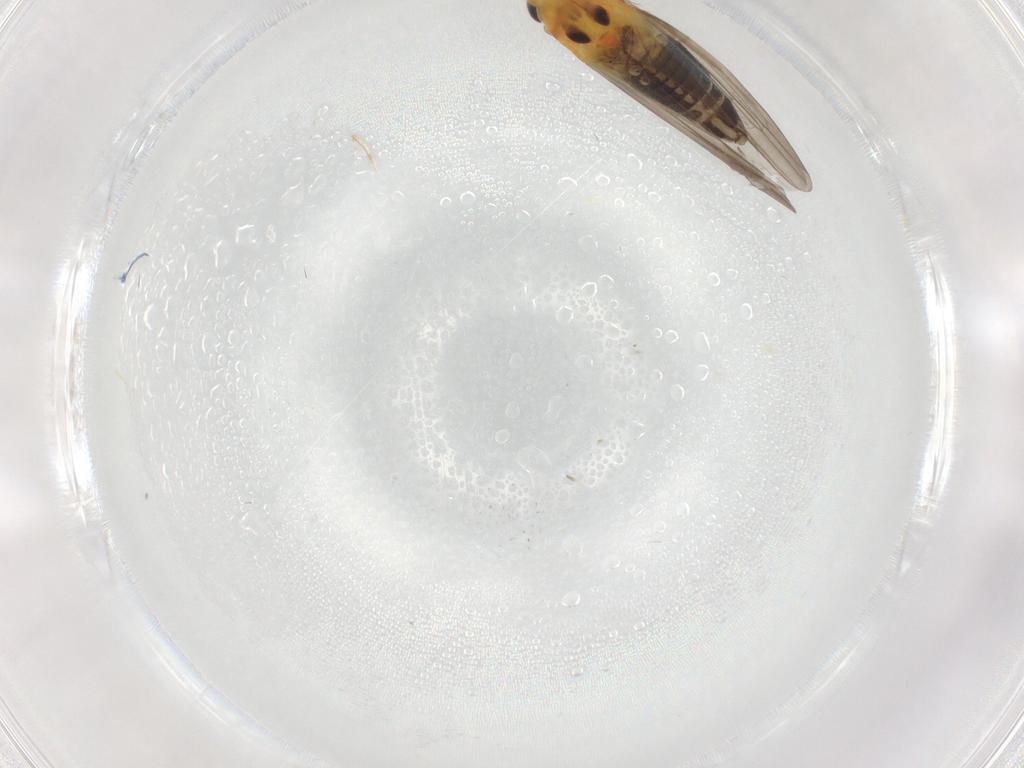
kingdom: Animalia
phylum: Arthropoda
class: Insecta
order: Hemiptera
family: Cicadellidae
